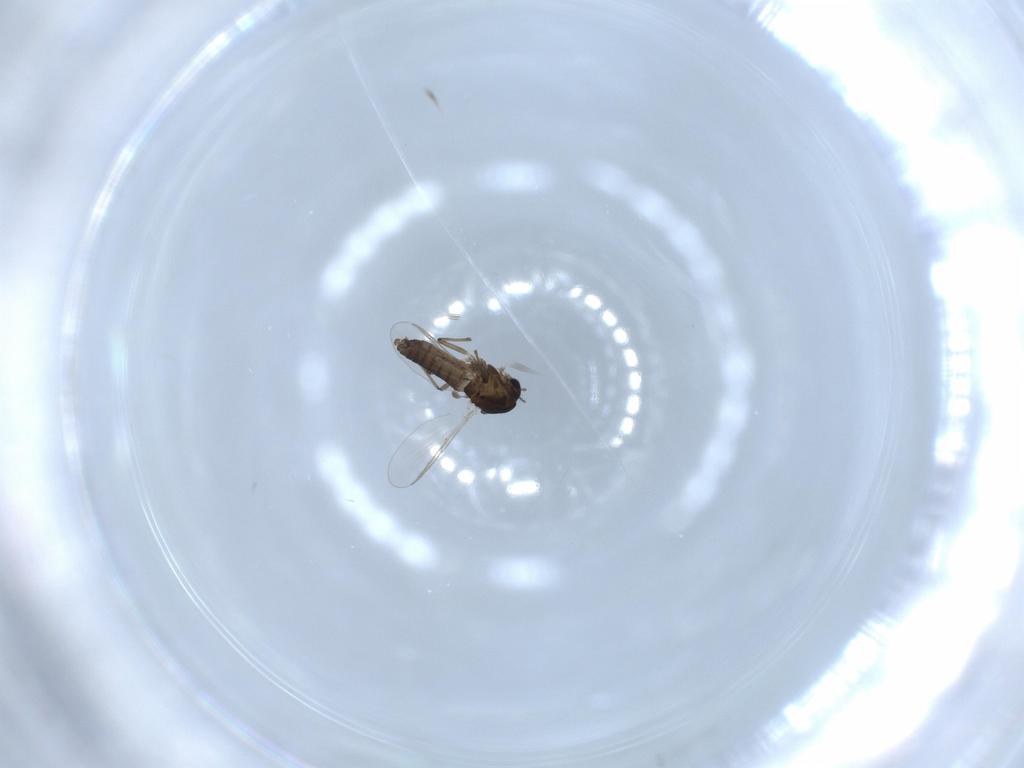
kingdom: Animalia
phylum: Arthropoda
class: Insecta
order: Diptera
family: Chironomidae
